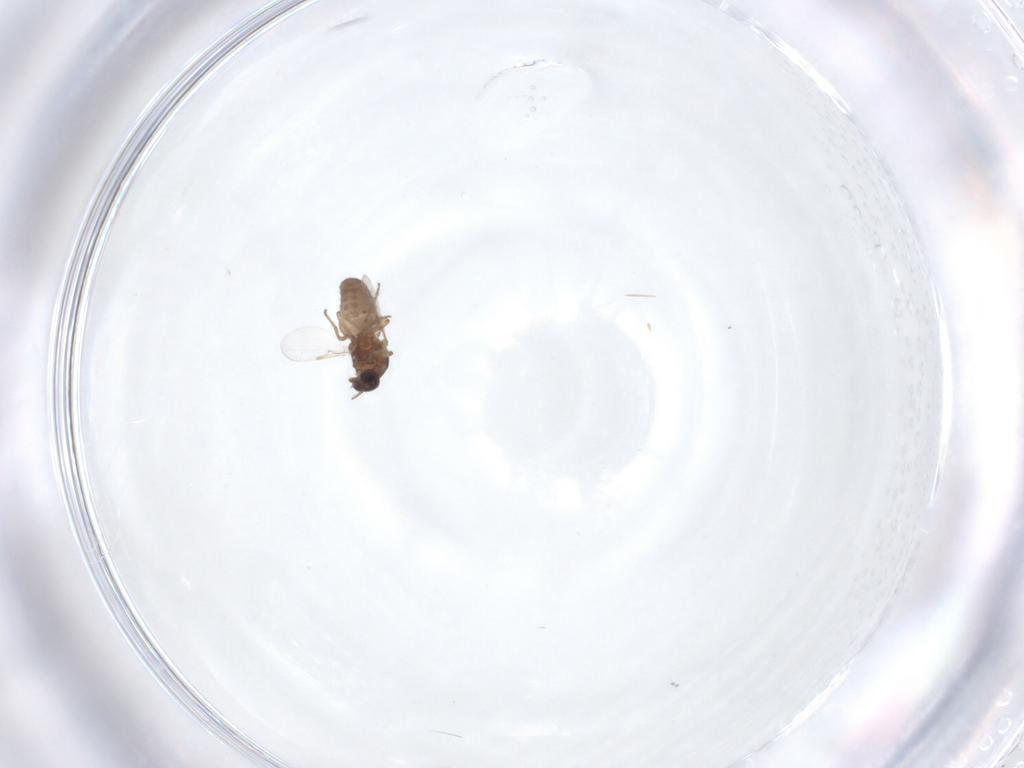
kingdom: Animalia
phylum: Arthropoda
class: Insecta
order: Diptera
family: Ceratopogonidae
